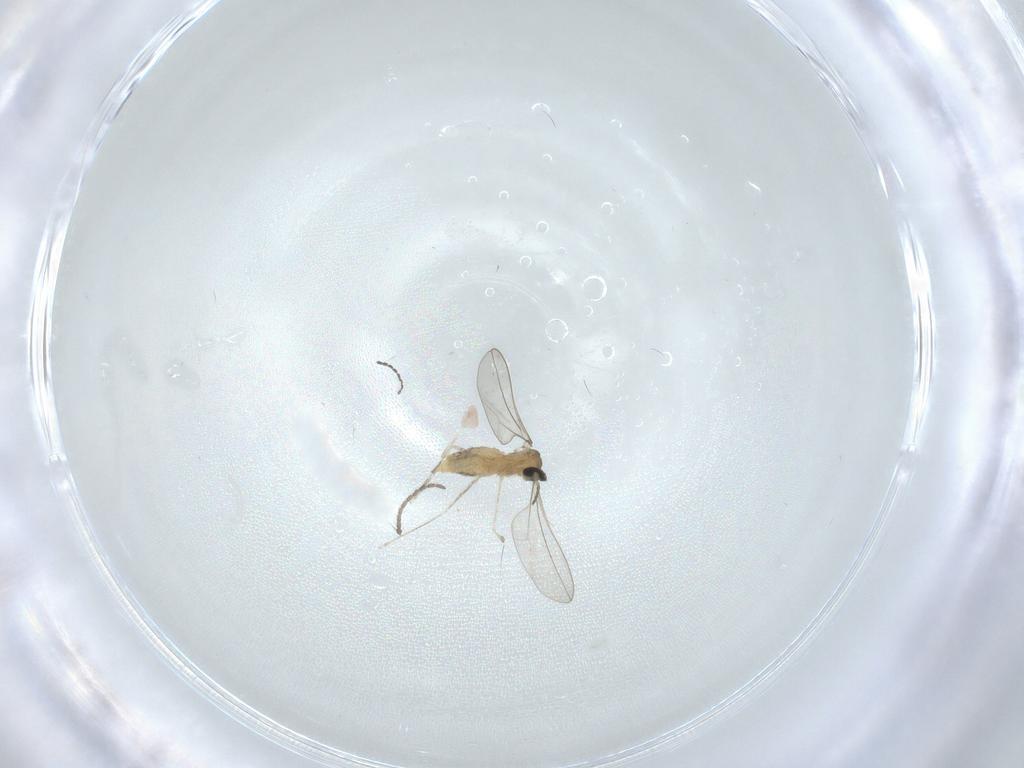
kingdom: Animalia
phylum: Arthropoda
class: Insecta
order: Diptera
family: Cecidomyiidae
